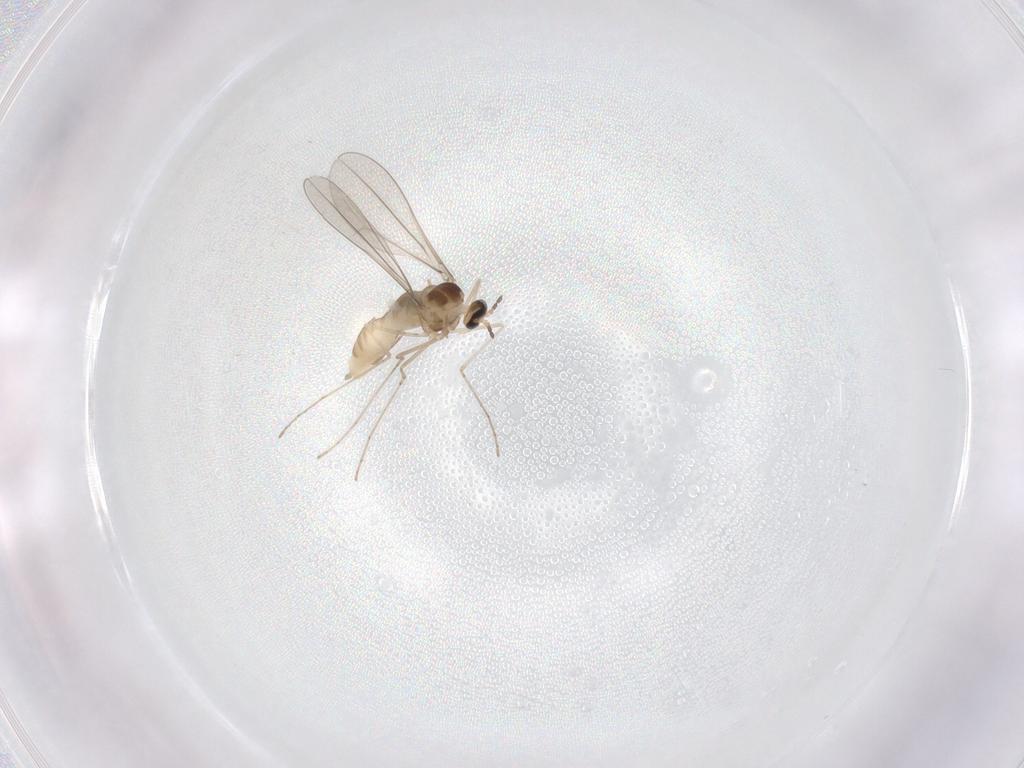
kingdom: Animalia
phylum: Arthropoda
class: Insecta
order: Diptera
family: Cecidomyiidae
